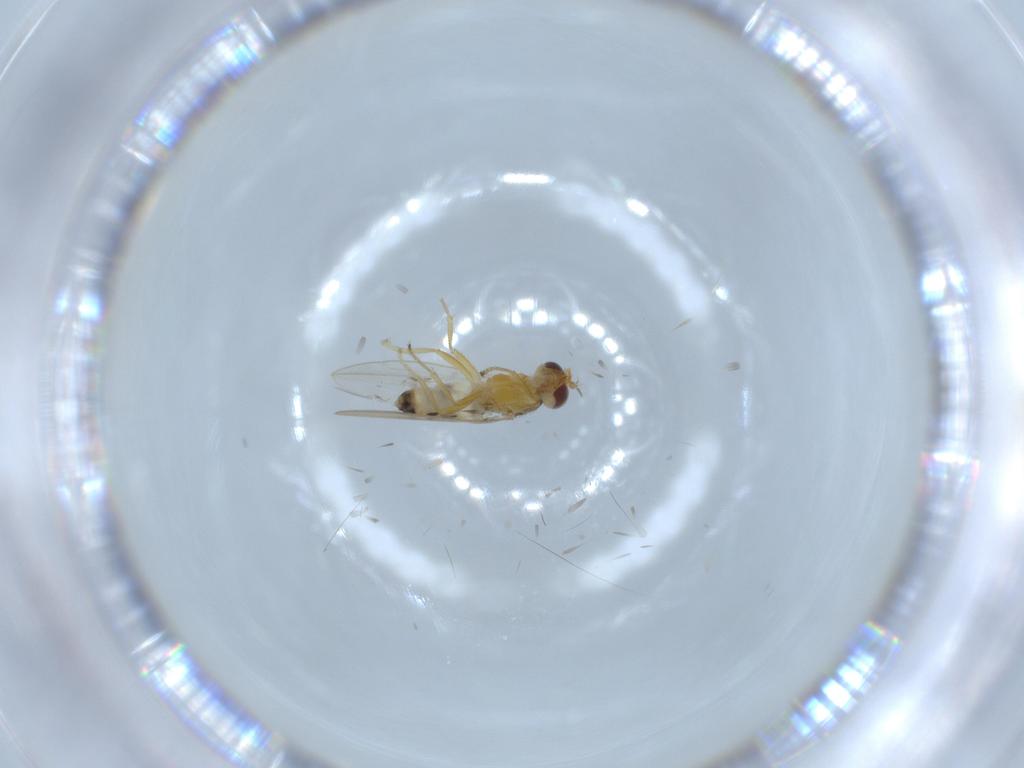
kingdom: Animalia
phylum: Arthropoda
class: Insecta
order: Diptera
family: Periscelididae
